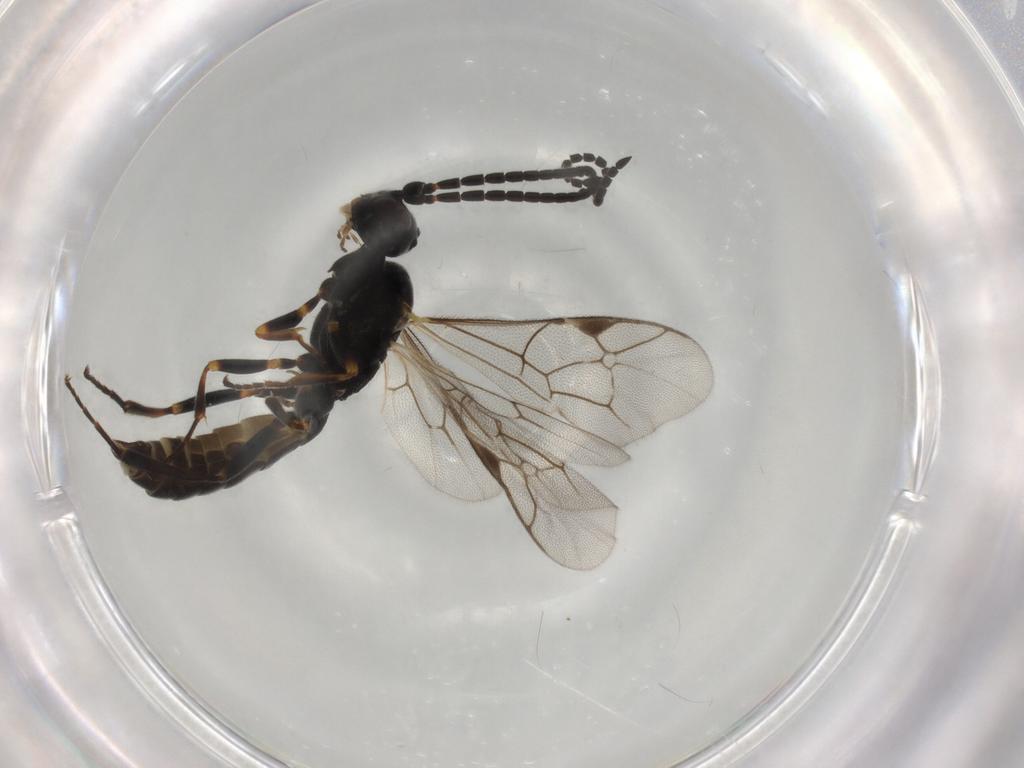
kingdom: Animalia
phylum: Arthropoda
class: Insecta
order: Hymenoptera
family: Ichneumonidae
